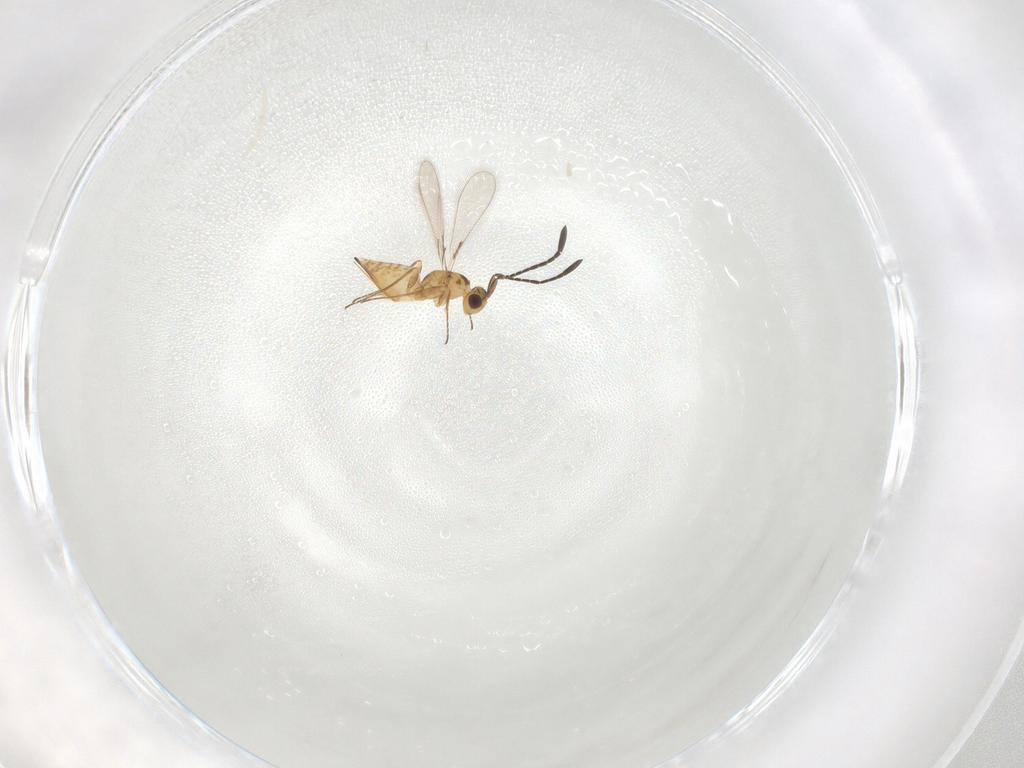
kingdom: Animalia
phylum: Arthropoda
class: Insecta
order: Hymenoptera
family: Mymaridae
